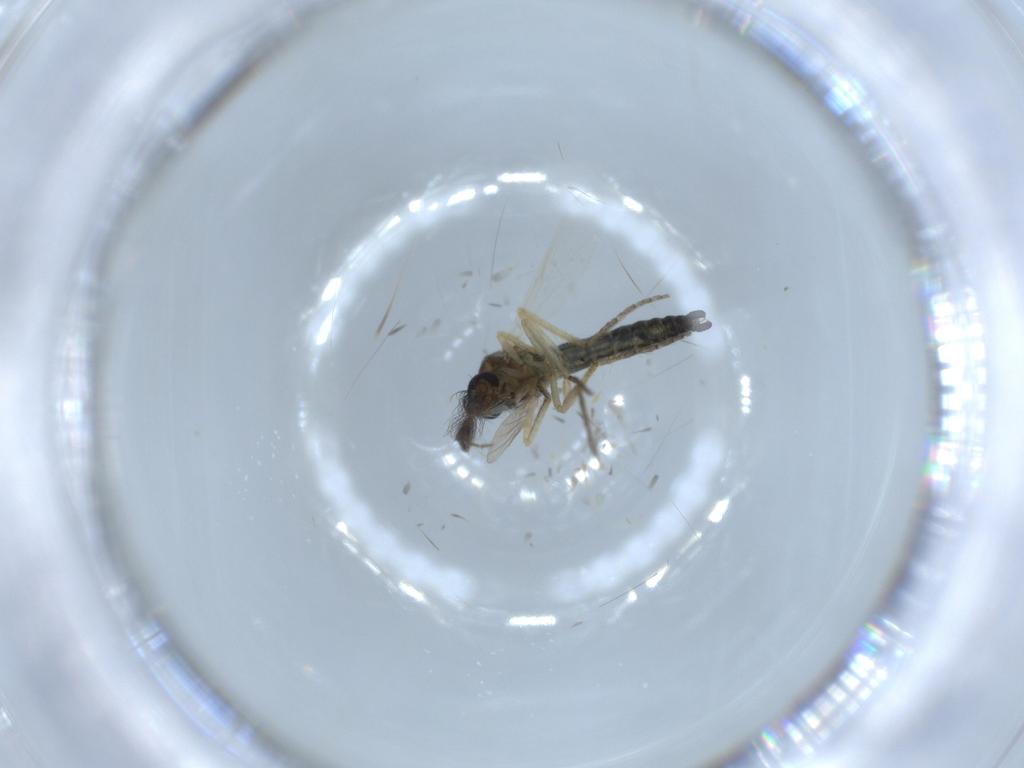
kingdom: Animalia
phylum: Arthropoda
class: Insecta
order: Diptera
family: Ceratopogonidae
